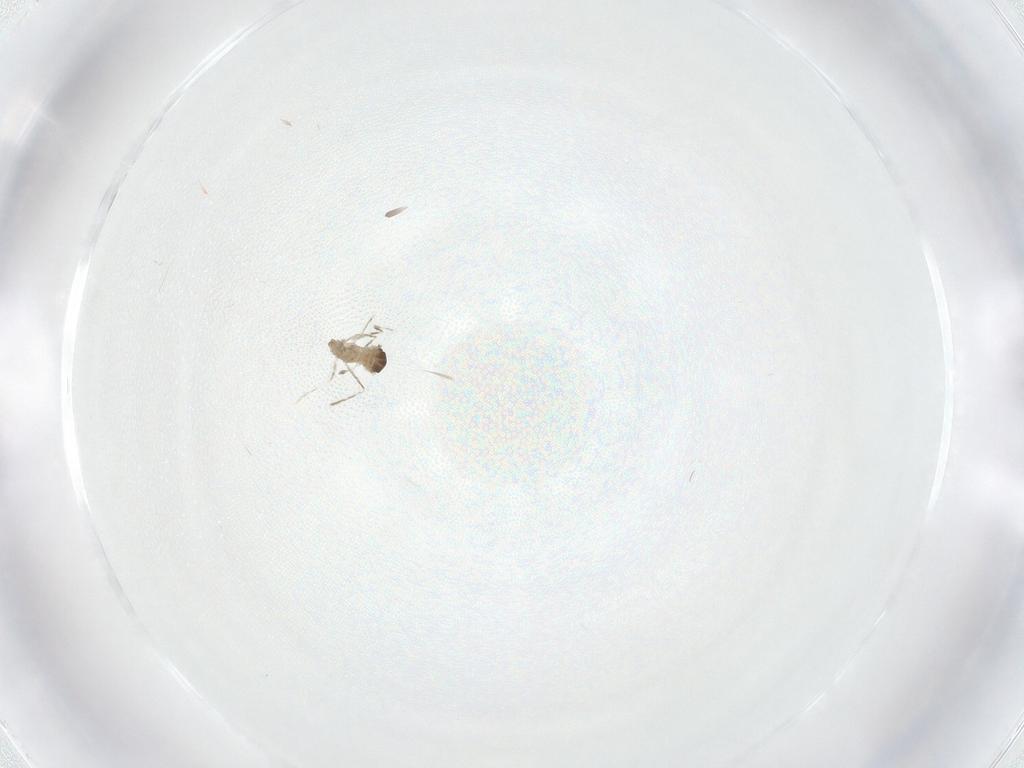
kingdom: Animalia
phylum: Arthropoda
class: Insecta
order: Diptera
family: Cecidomyiidae
